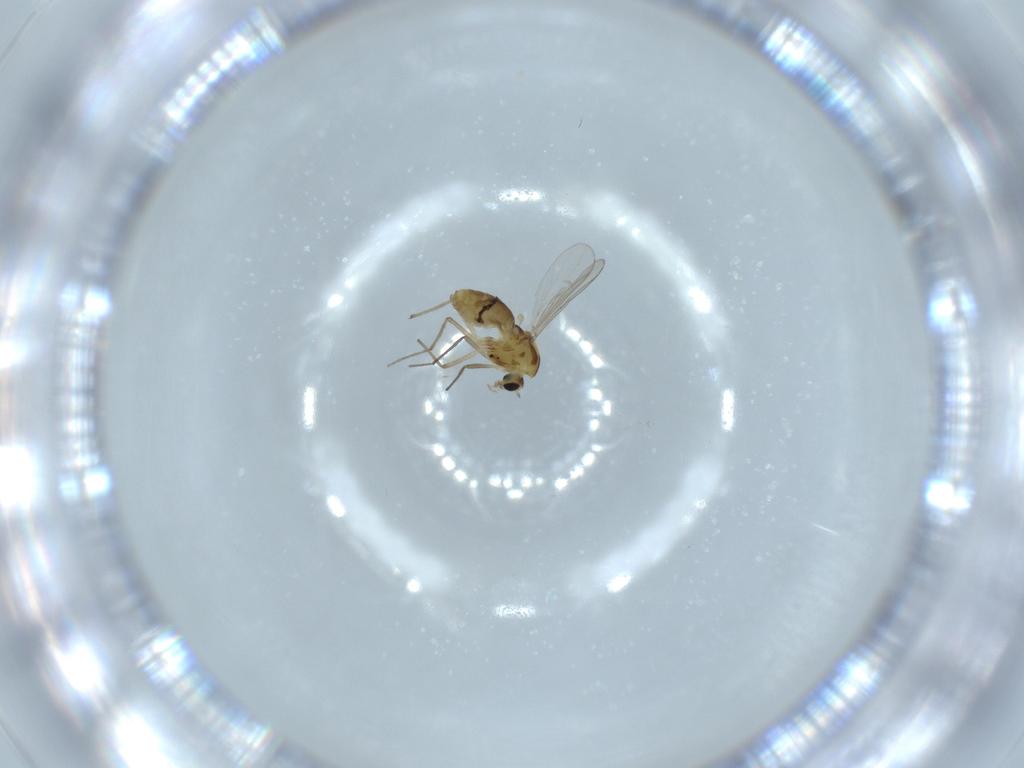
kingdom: Animalia
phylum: Arthropoda
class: Insecta
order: Diptera
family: Chironomidae
